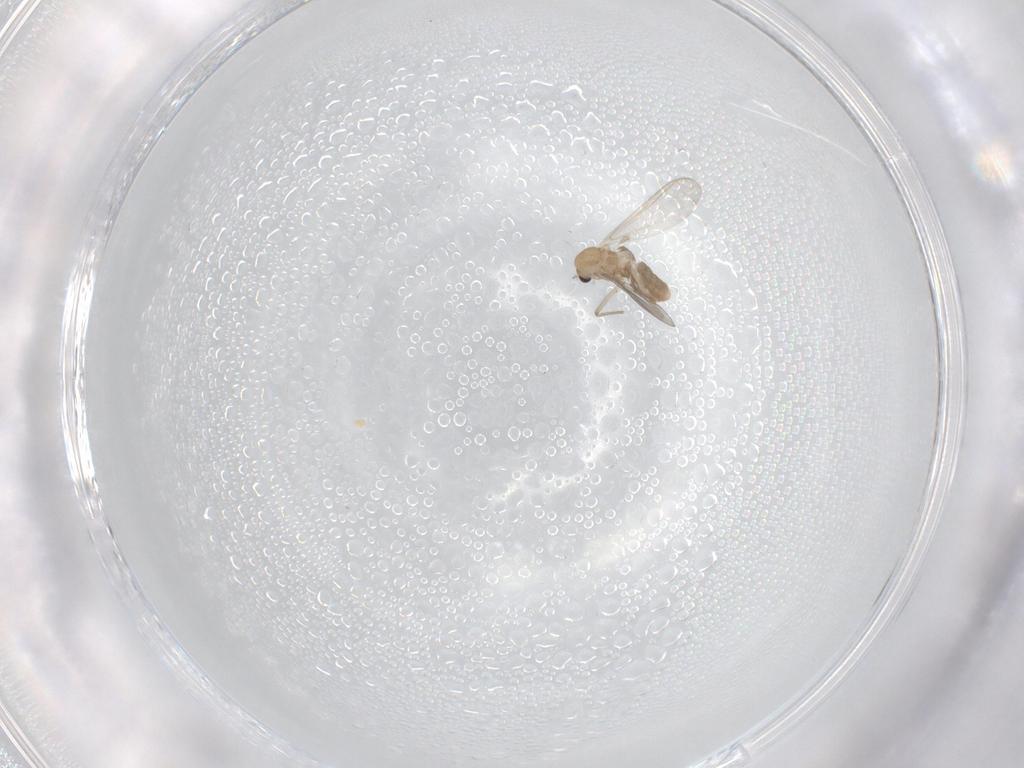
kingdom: Animalia
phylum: Arthropoda
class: Insecta
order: Diptera
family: Chironomidae
